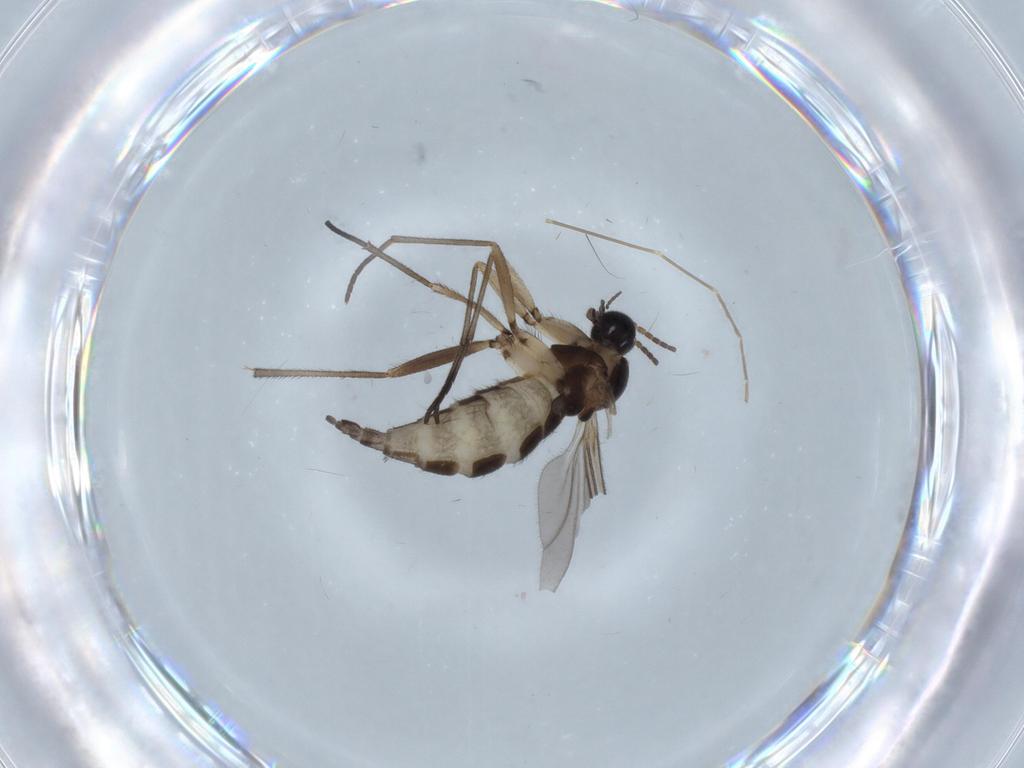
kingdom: Animalia
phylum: Arthropoda
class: Insecta
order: Diptera
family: Sciaridae
